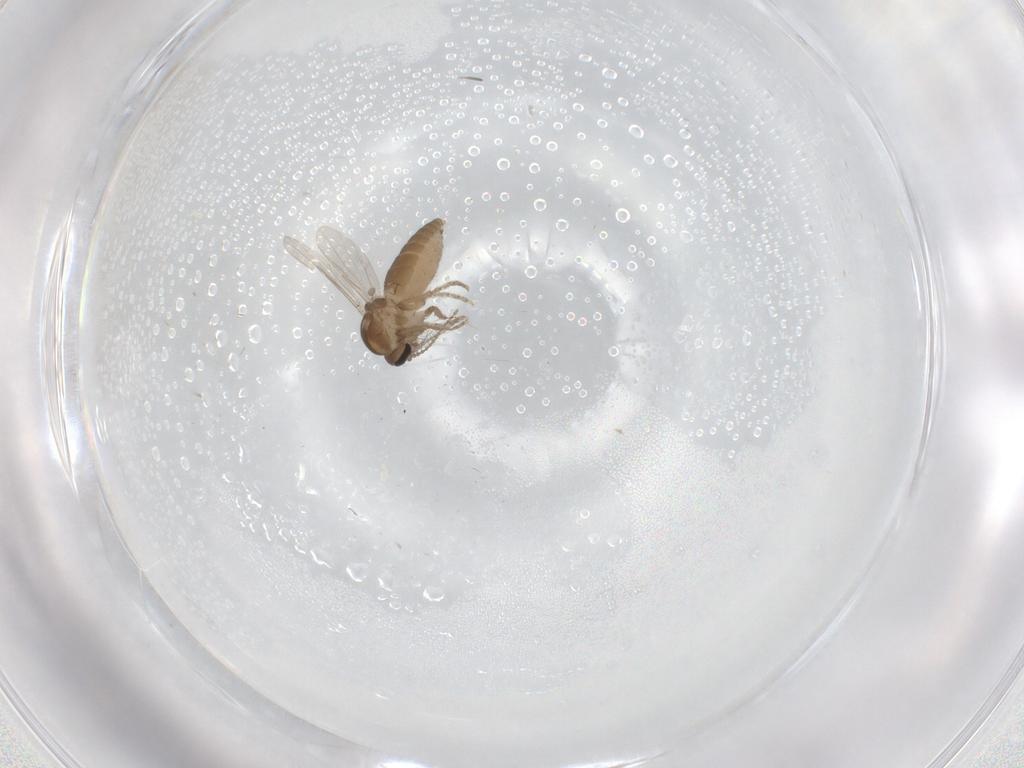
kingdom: Animalia
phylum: Arthropoda
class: Insecta
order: Diptera
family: Ceratopogonidae
